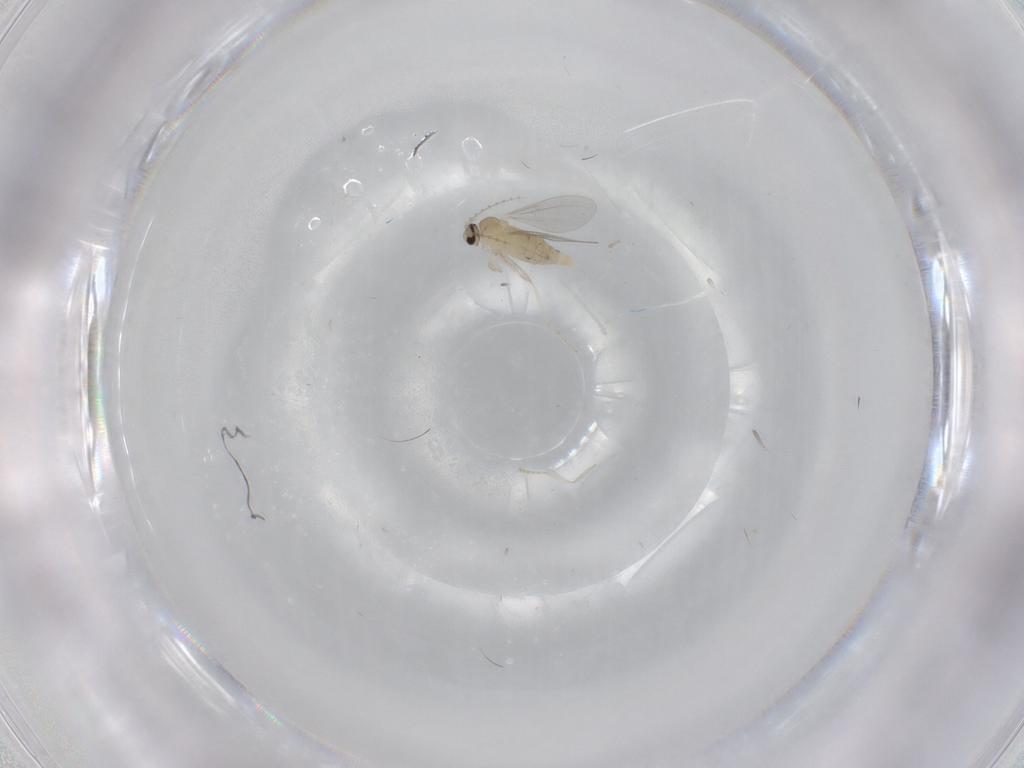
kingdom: Animalia
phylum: Arthropoda
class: Insecta
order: Diptera
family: Cecidomyiidae
